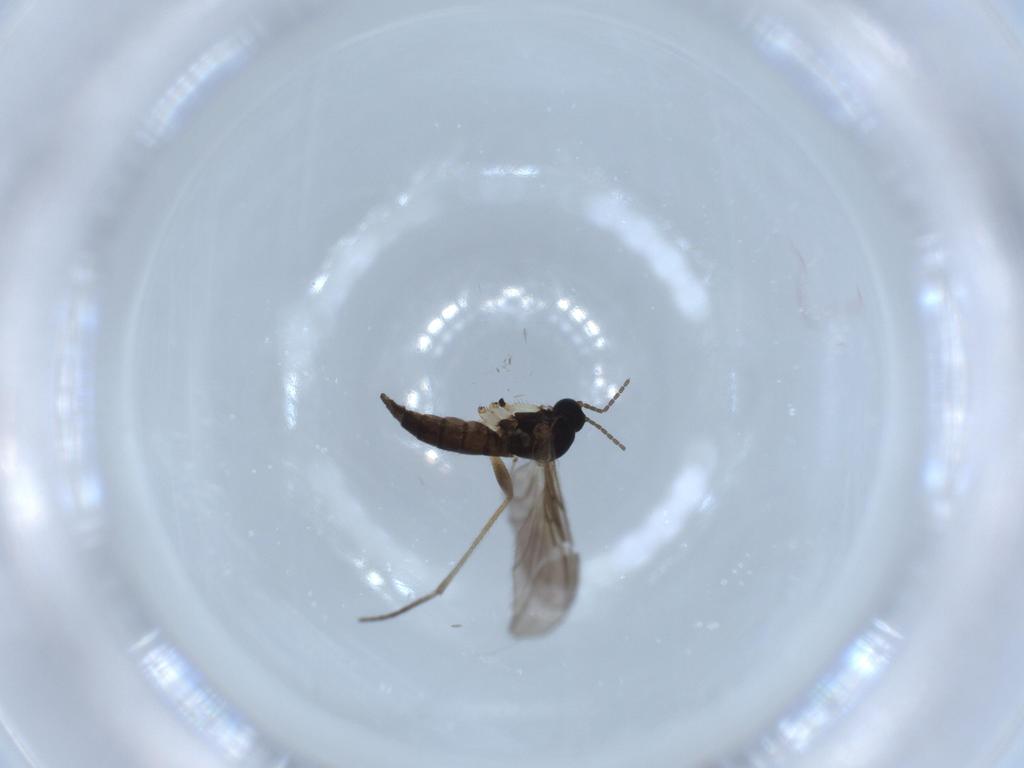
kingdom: Animalia
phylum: Arthropoda
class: Insecta
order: Diptera
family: Sciaridae
